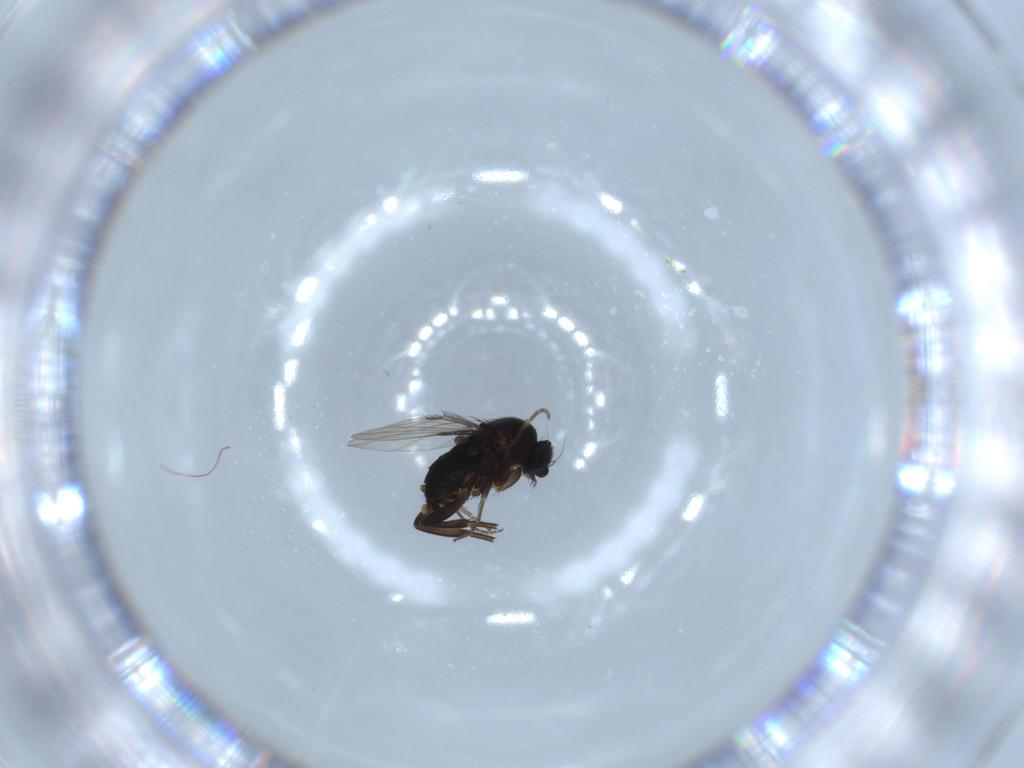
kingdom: Animalia
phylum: Arthropoda
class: Insecta
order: Diptera
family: Phoridae
